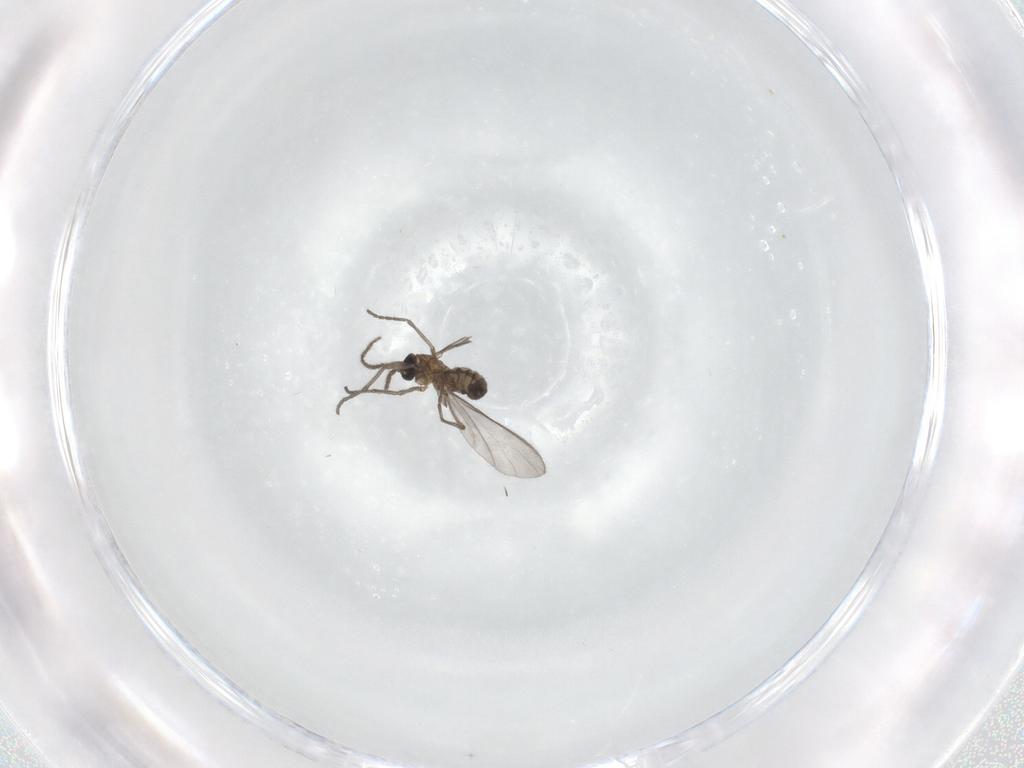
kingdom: Animalia
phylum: Arthropoda
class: Insecta
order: Diptera
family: Sciaridae
